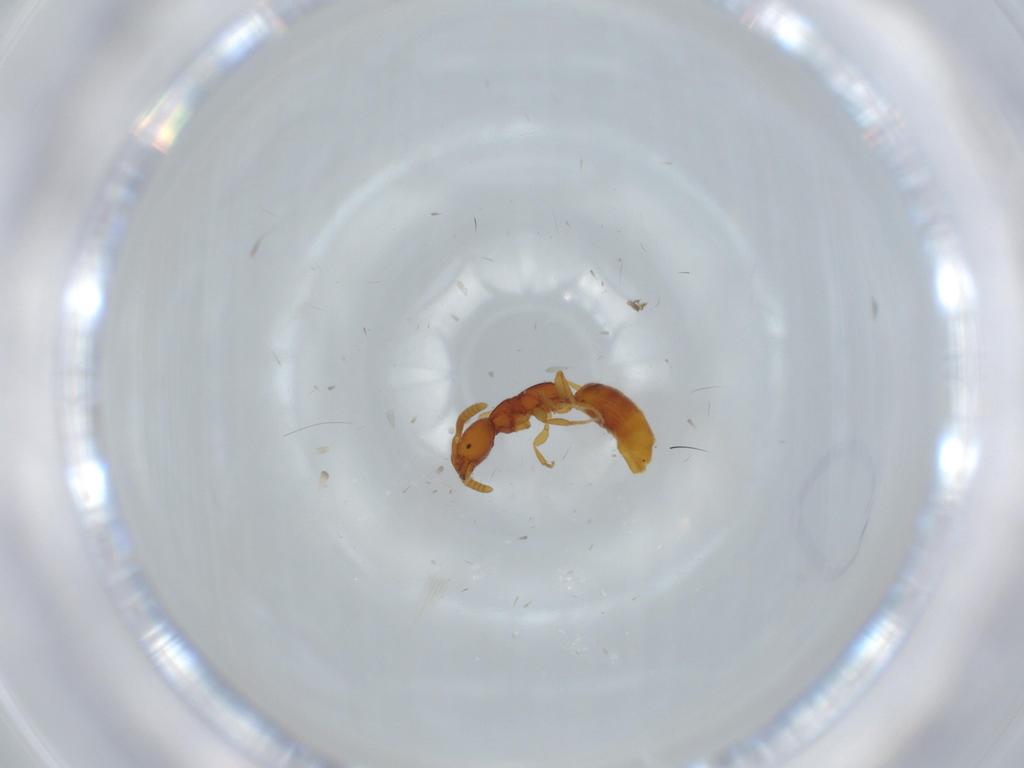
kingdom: Animalia
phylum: Arthropoda
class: Insecta
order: Hymenoptera
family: Bethylidae
